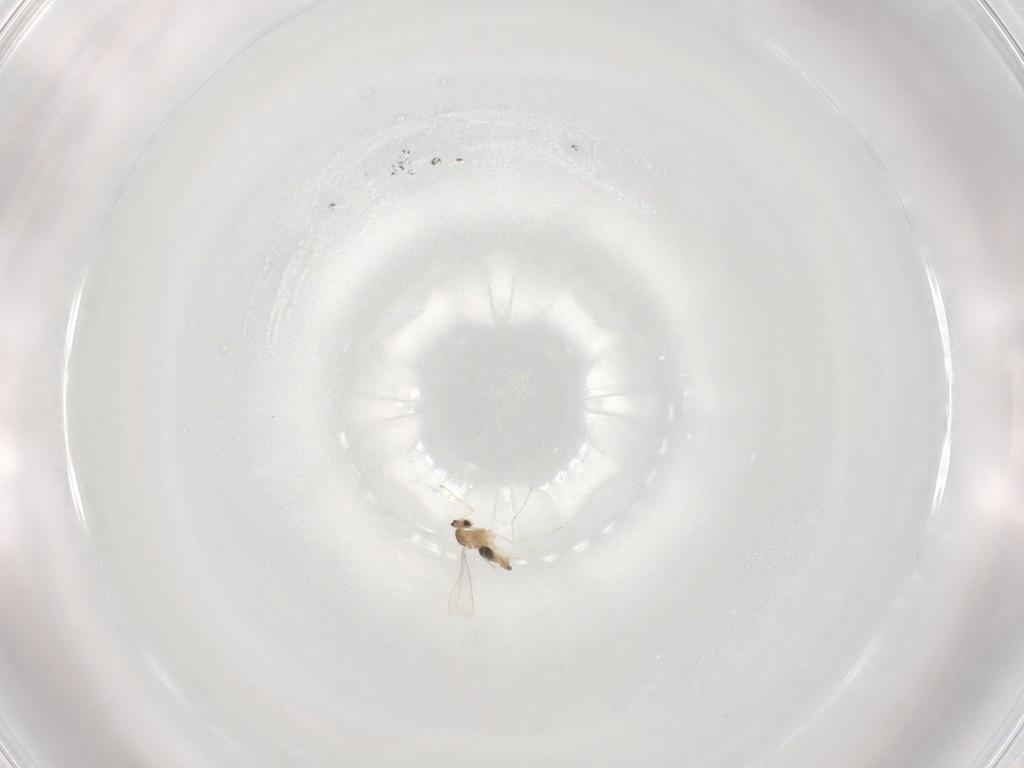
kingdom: Animalia
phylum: Arthropoda
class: Insecta
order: Diptera
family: Cecidomyiidae
